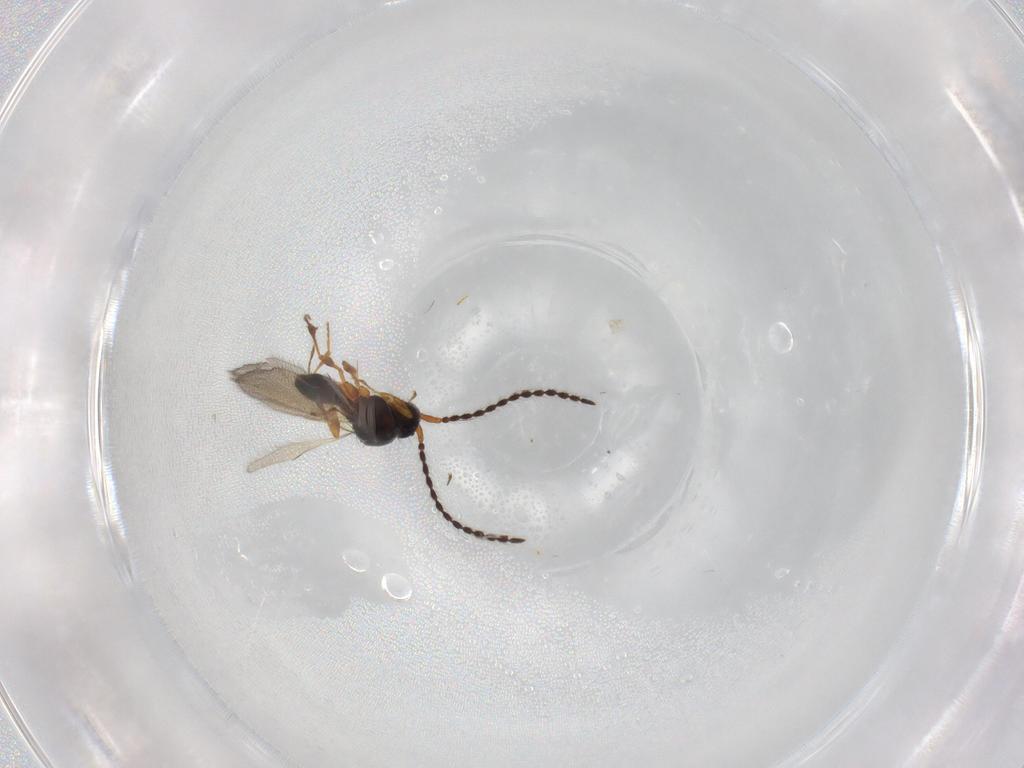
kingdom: Animalia
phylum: Arthropoda
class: Insecta
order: Hymenoptera
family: Diapriidae
